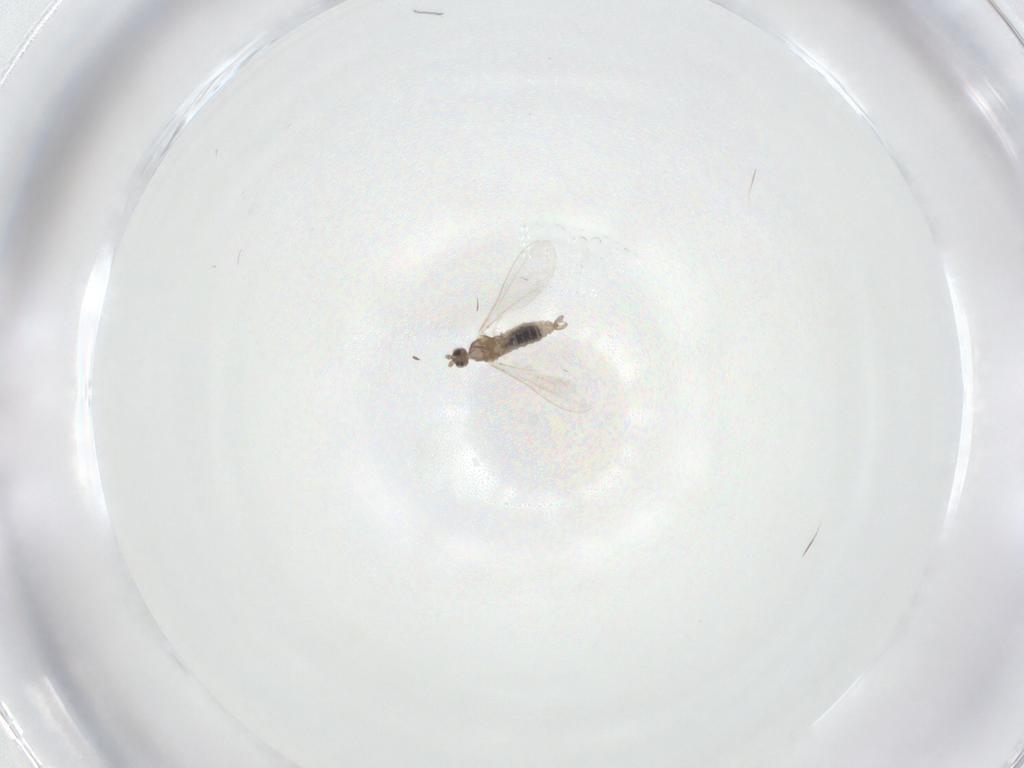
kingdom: Animalia
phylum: Arthropoda
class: Insecta
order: Diptera
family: Cecidomyiidae
